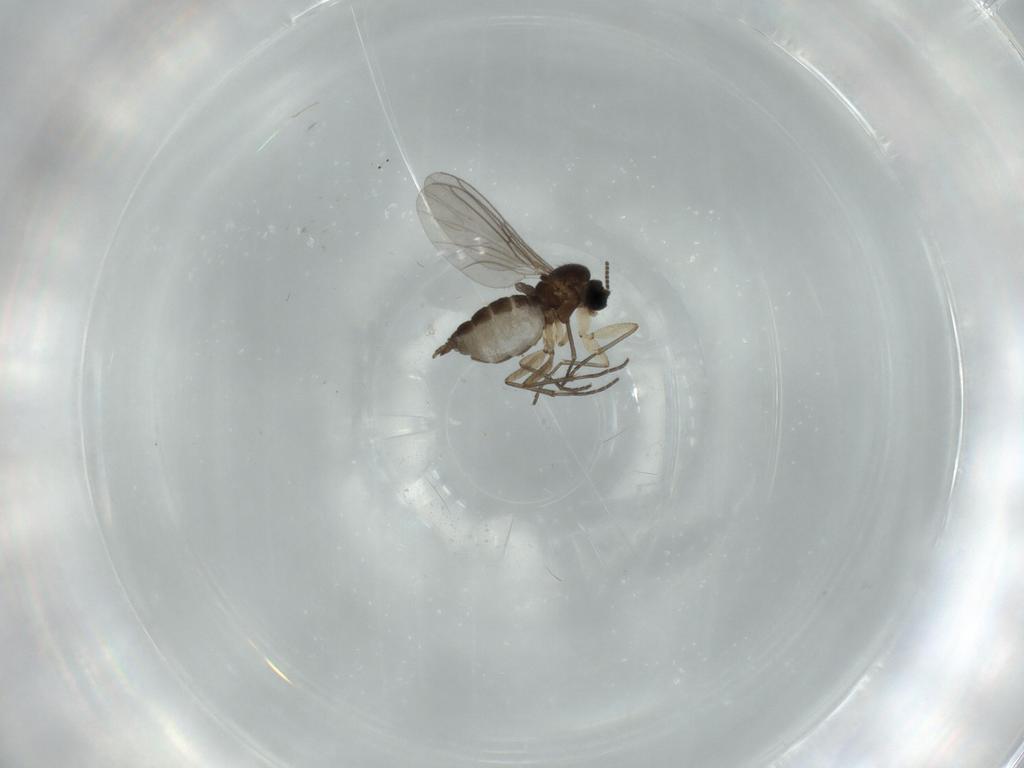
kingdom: Animalia
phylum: Arthropoda
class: Insecta
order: Diptera
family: Sciaridae
